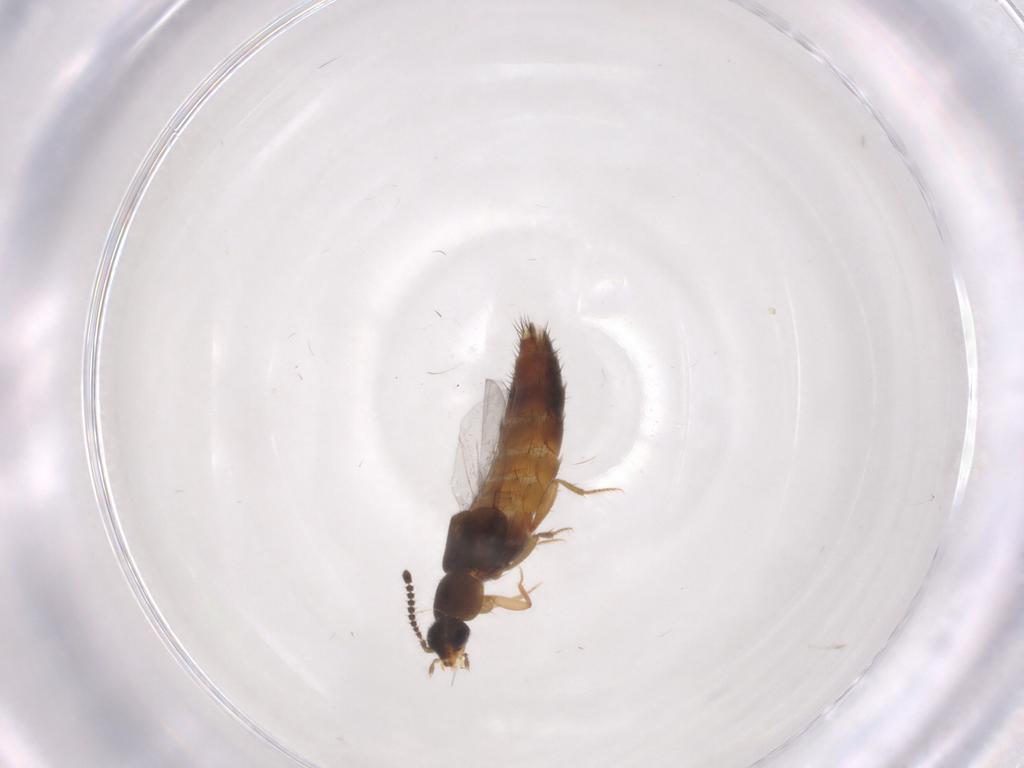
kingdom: Animalia
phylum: Arthropoda
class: Insecta
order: Coleoptera
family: Staphylinidae
